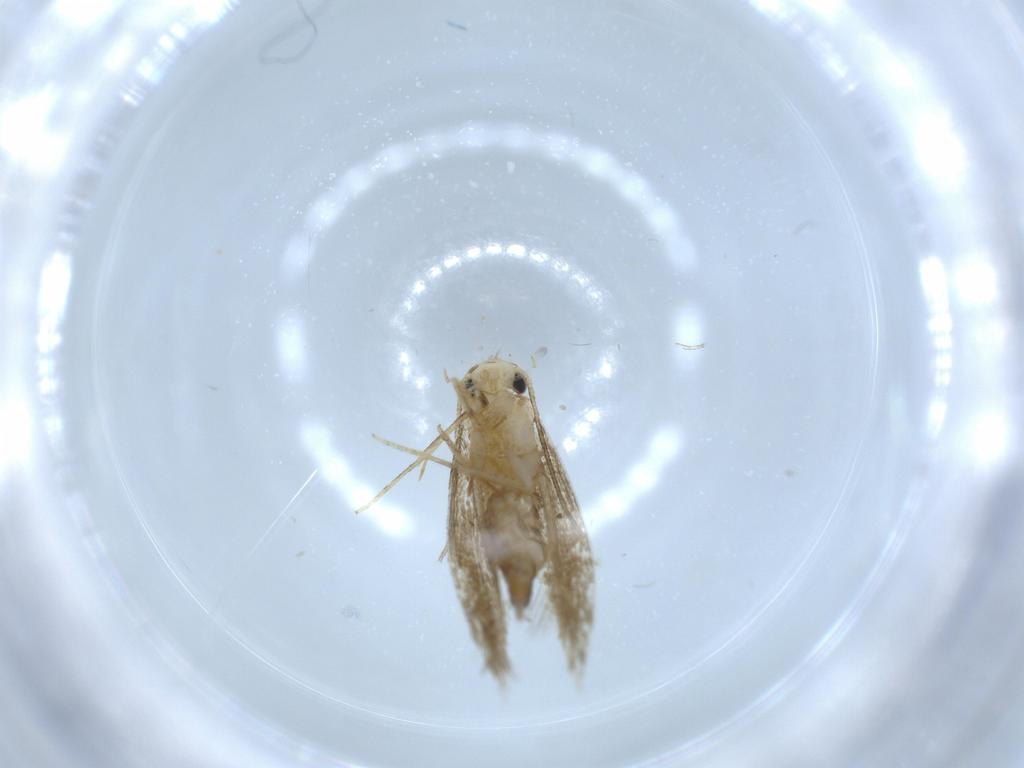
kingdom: Animalia
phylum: Arthropoda
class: Insecta
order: Lepidoptera
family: Tineidae
